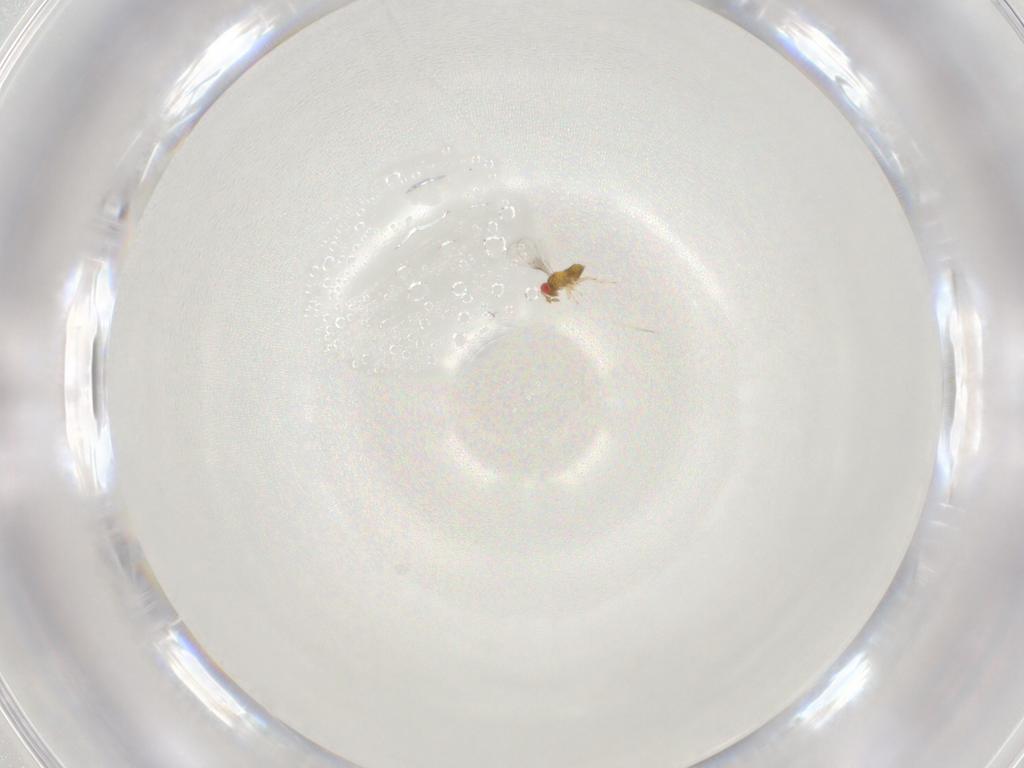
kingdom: Animalia
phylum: Arthropoda
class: Insecta
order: Hymenoptera
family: Trichogrammatidae
